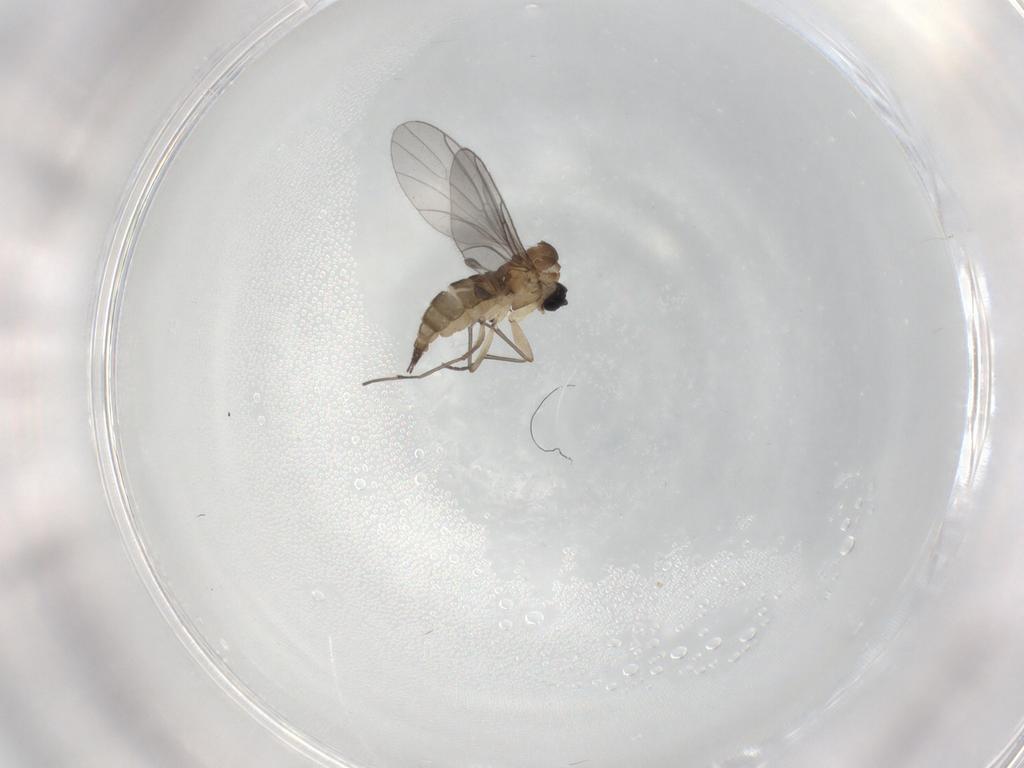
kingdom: Animalia
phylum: Arthropoda
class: Insecta
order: Diptera
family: Sciaridae
